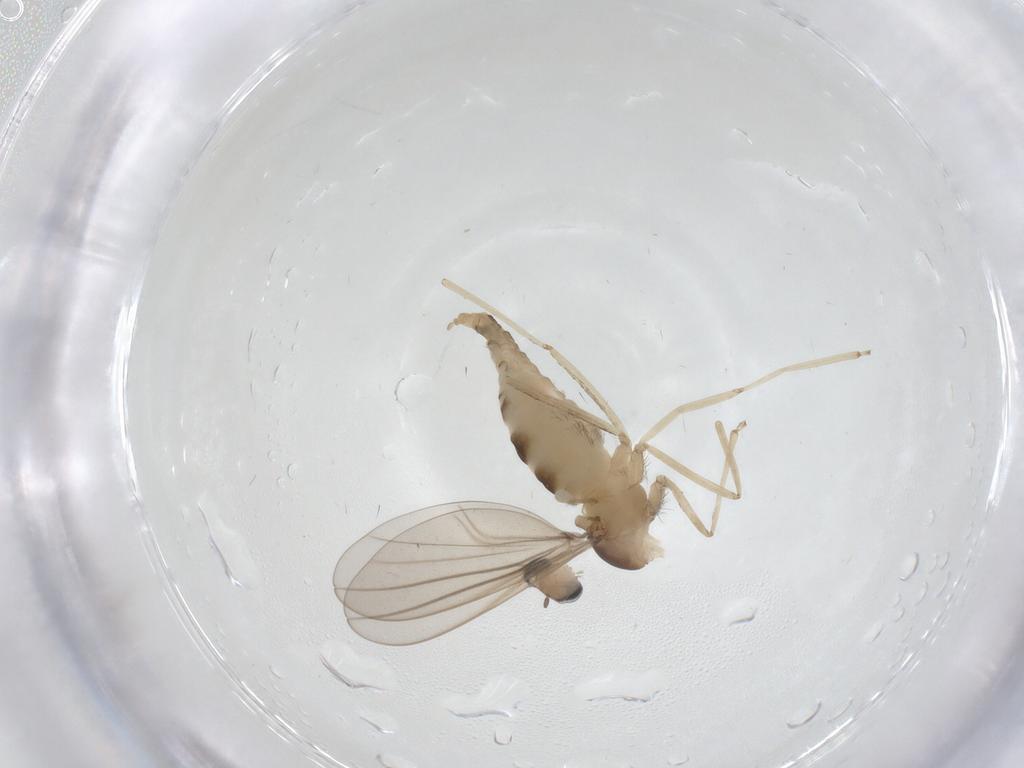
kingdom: Animalia
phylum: Arthropoda
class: Insecta
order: Diptera
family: Cecidomyiidae
